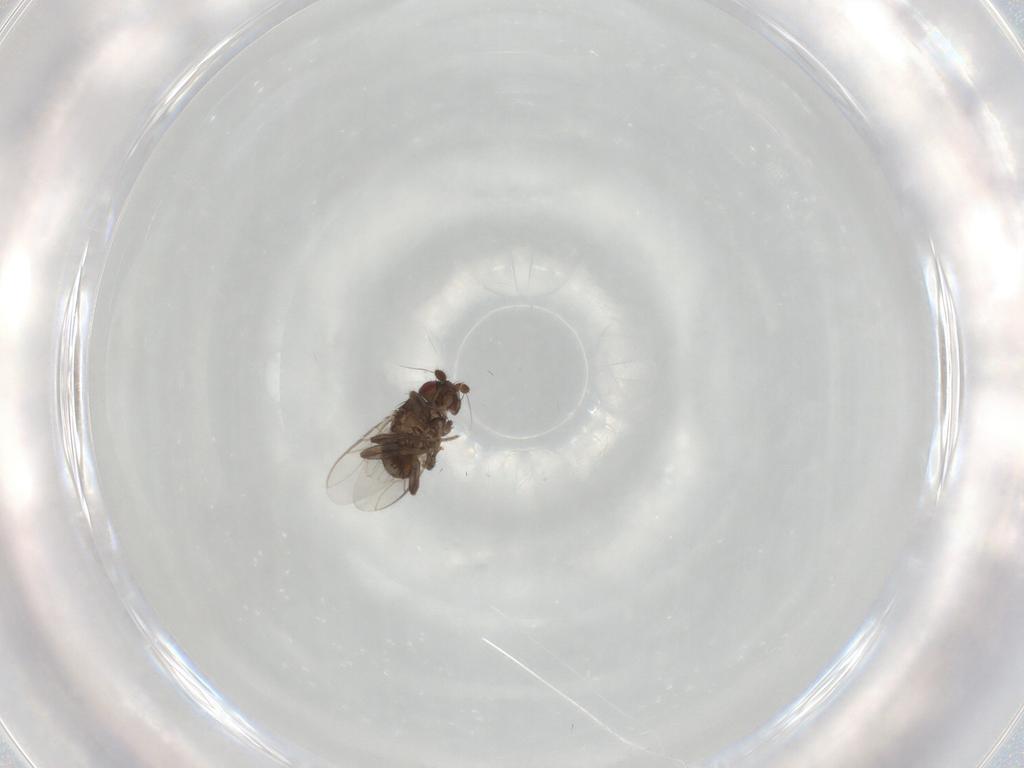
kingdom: Animalia
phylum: Arthropoda
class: Insecta
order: Diptera
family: Sphaeroceridae
